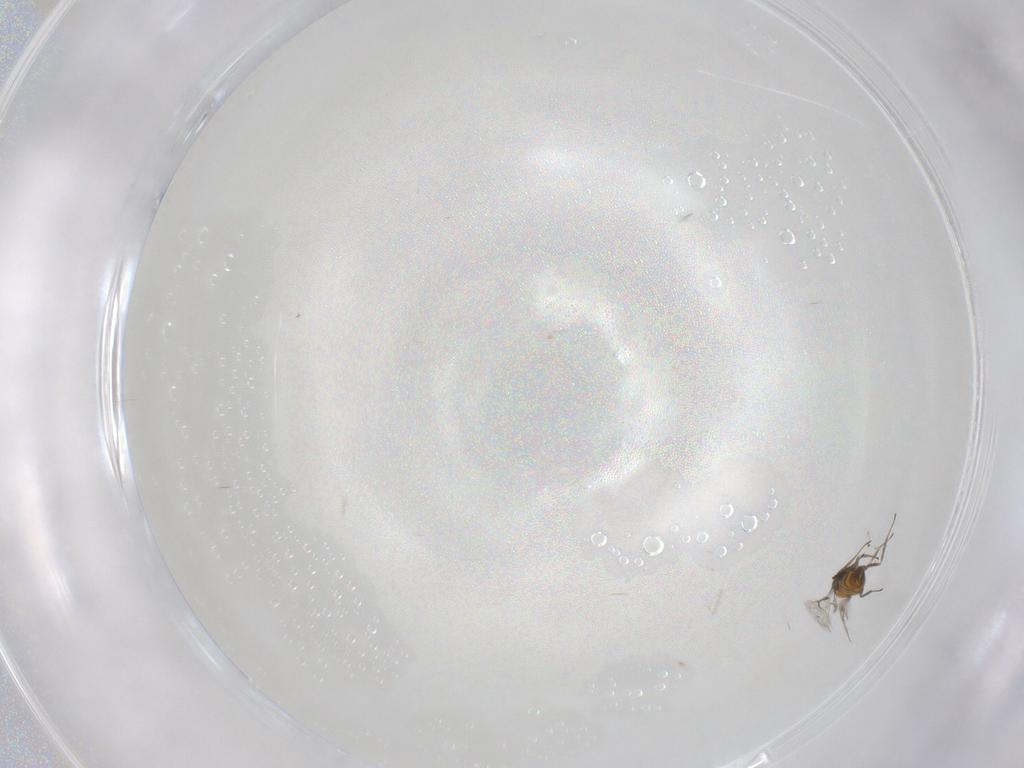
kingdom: Animalia
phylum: Arthropoda
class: Insecta
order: Hymenoptera
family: Trichogrammatidae
